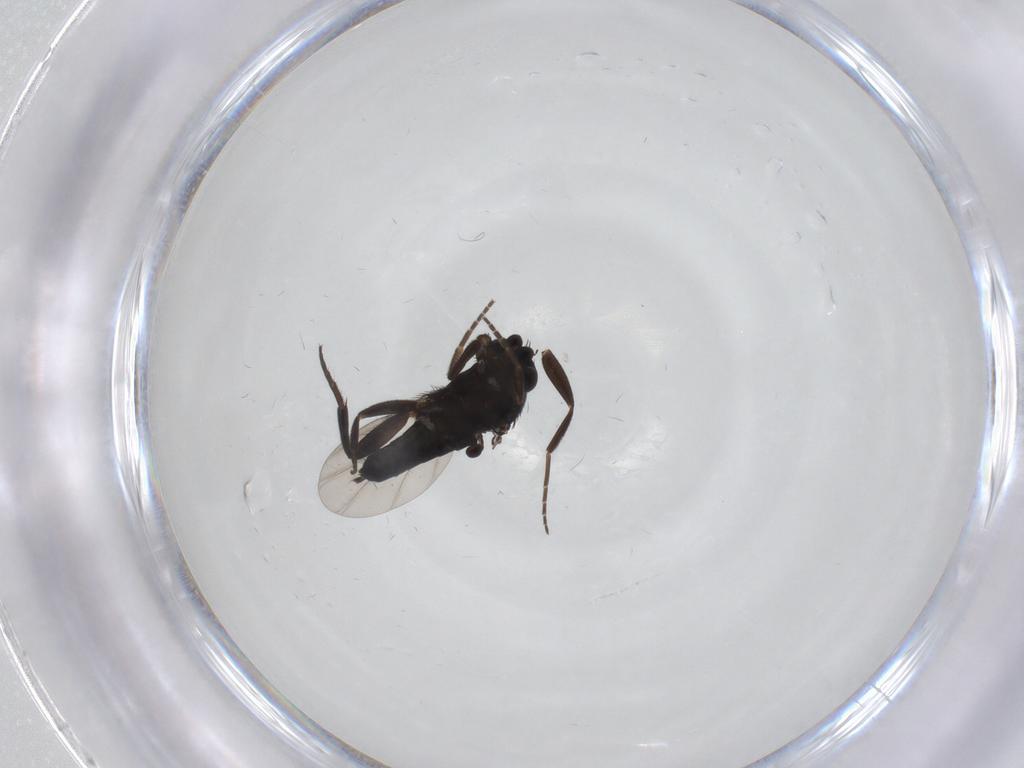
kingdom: Animalia
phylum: Arthropoda
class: Insecta
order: Diptera
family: Phoridae
